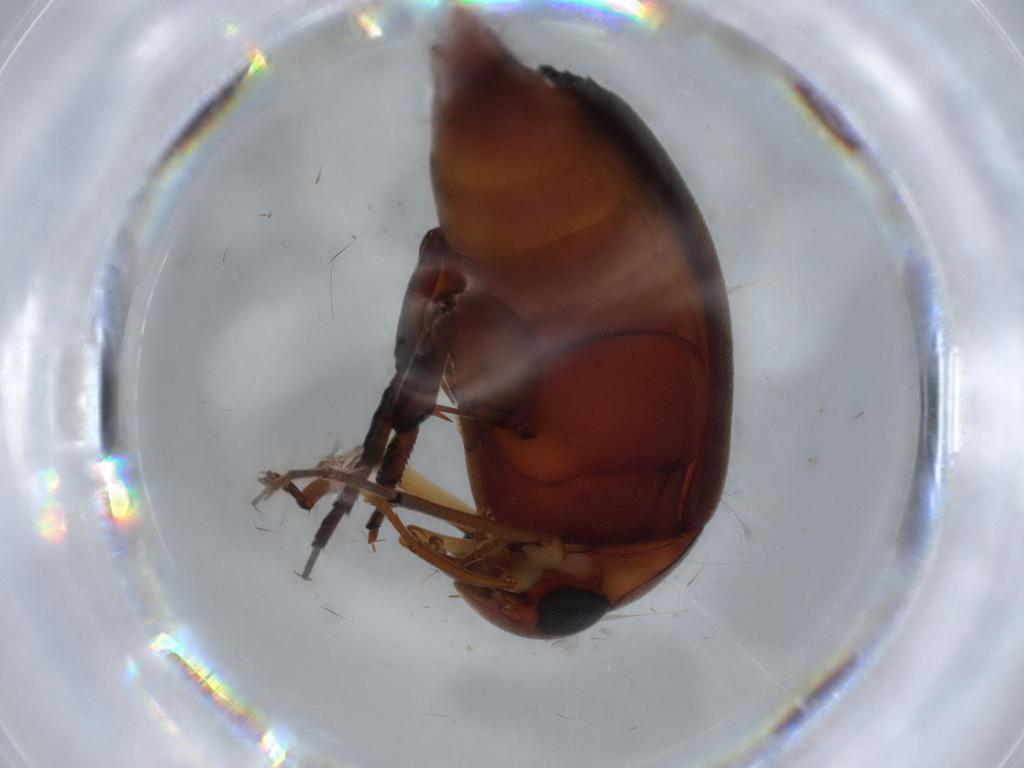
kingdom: Animalia
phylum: Arthropoda
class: Insecta
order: Coleoptera
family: Mordellidae
